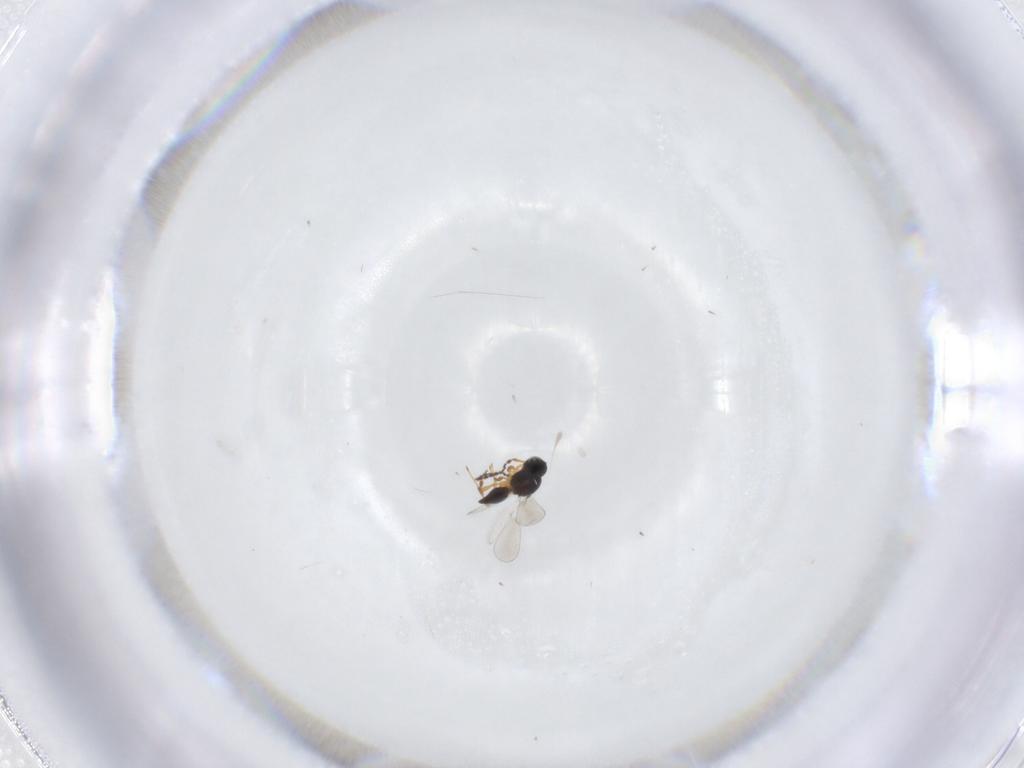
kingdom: Animalia
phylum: Arthropoda
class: Insecta
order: Hymenoptera
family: Platygastridae
